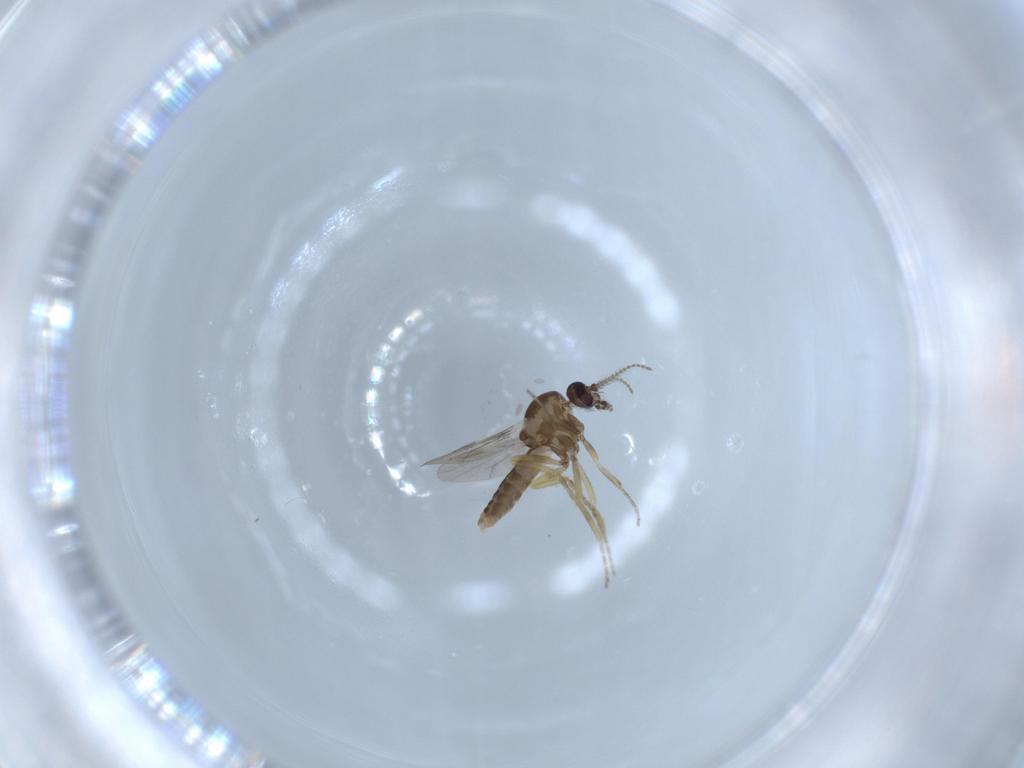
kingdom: Animalia
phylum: Arthropoda
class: Insecta
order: Diptera
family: Ceratopogonidae
